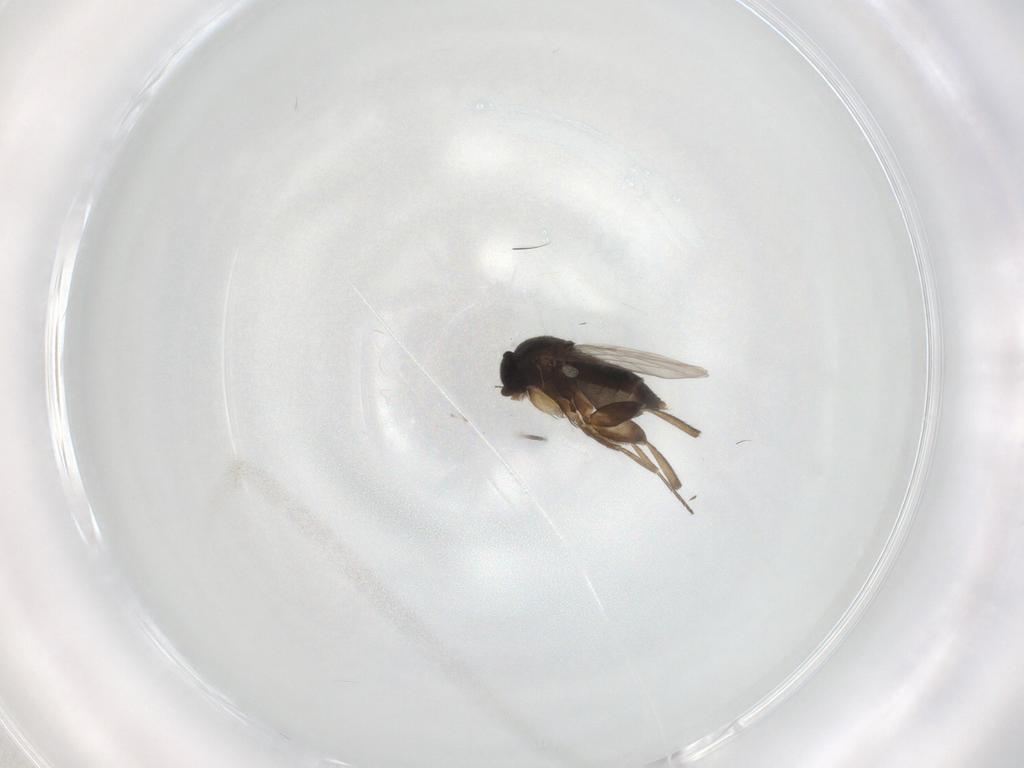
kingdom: Animalia
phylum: Arthropoda
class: Insecta
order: Diptera
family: Phoridae
